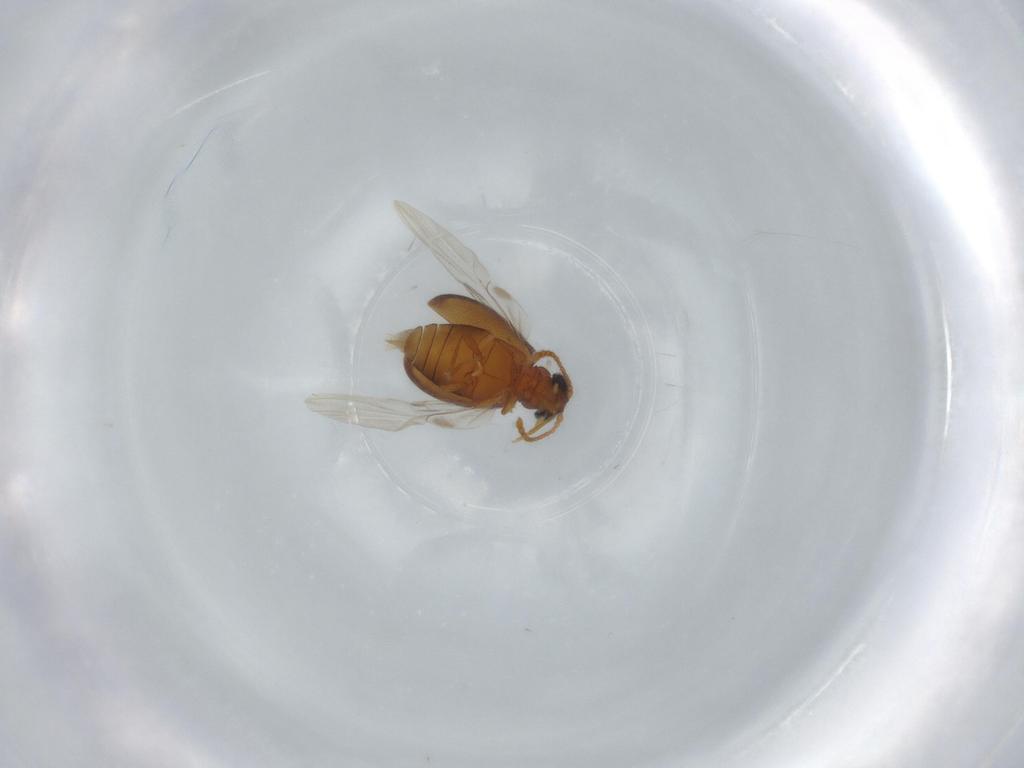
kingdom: Animalia
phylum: Arthropoda
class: Insecta
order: Coleoptera
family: Aderidae
